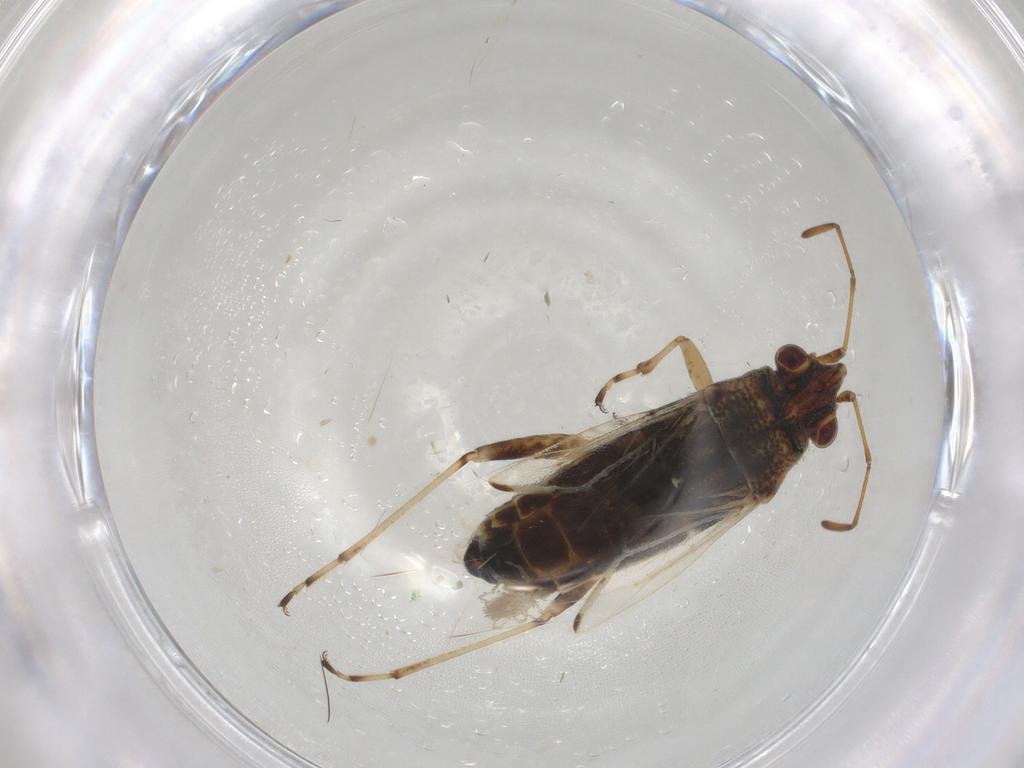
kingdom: Animalia
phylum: Arthropoda
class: Insecta
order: Hemiptera
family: Lygaeidae
